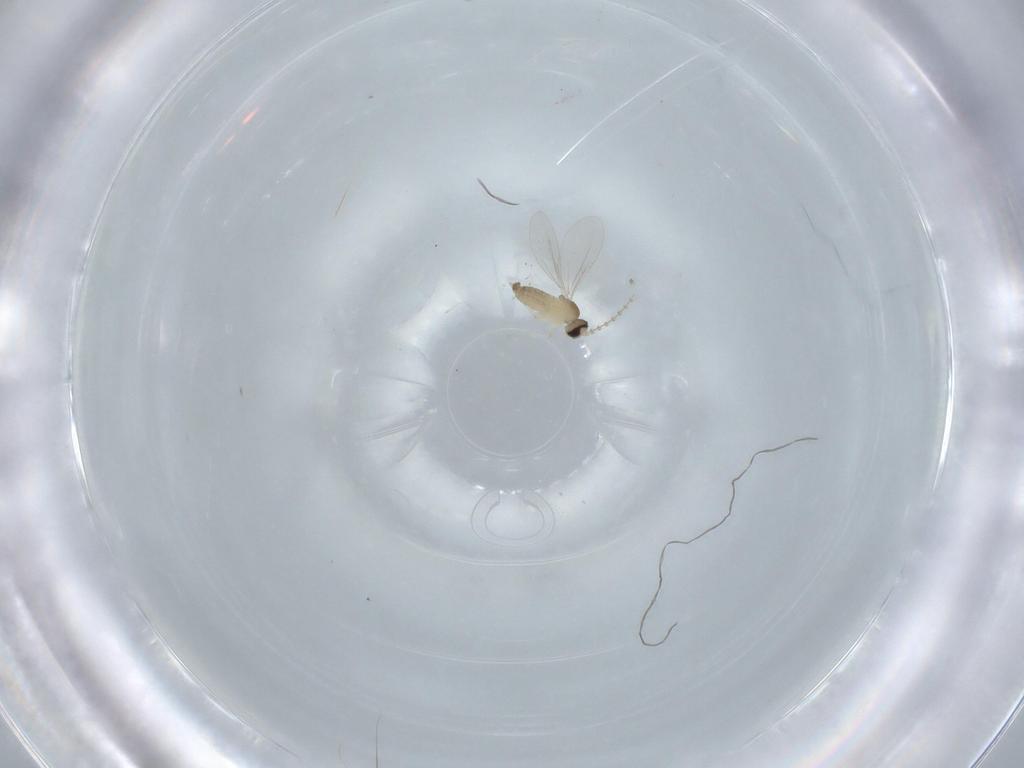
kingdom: Animalia
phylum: Arthropoda
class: Insecta
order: Diptera
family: Cecidomyiidae
